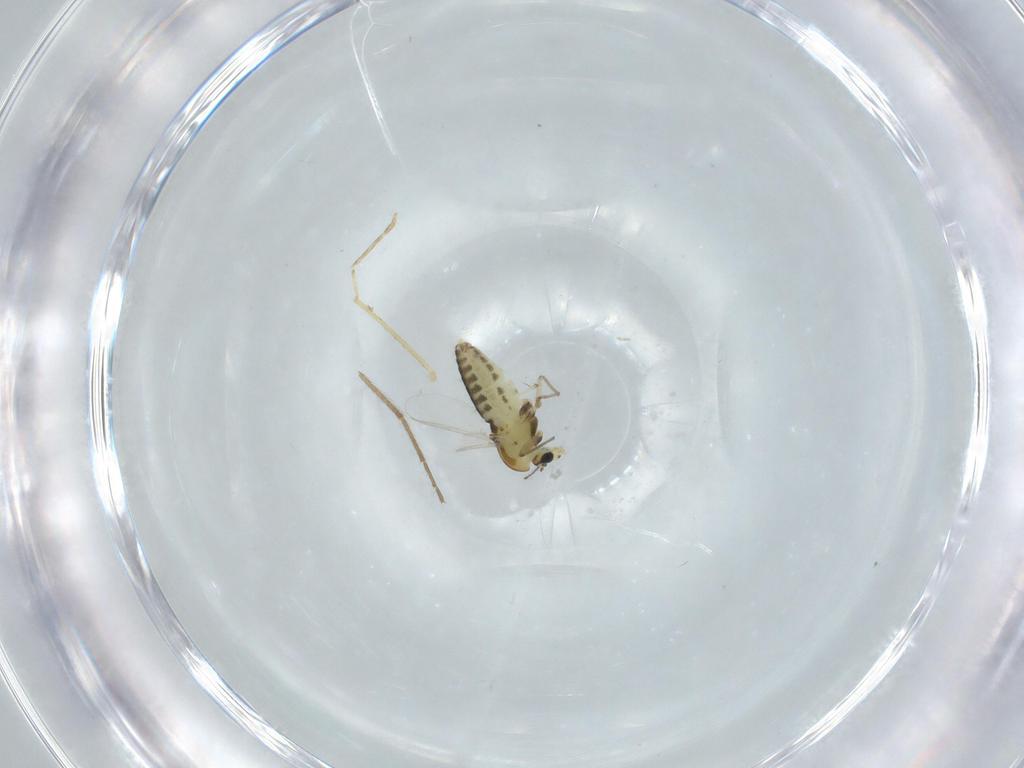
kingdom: Animalia
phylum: Arthropoda
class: Insecta
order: Diptera
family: Chironomidae
